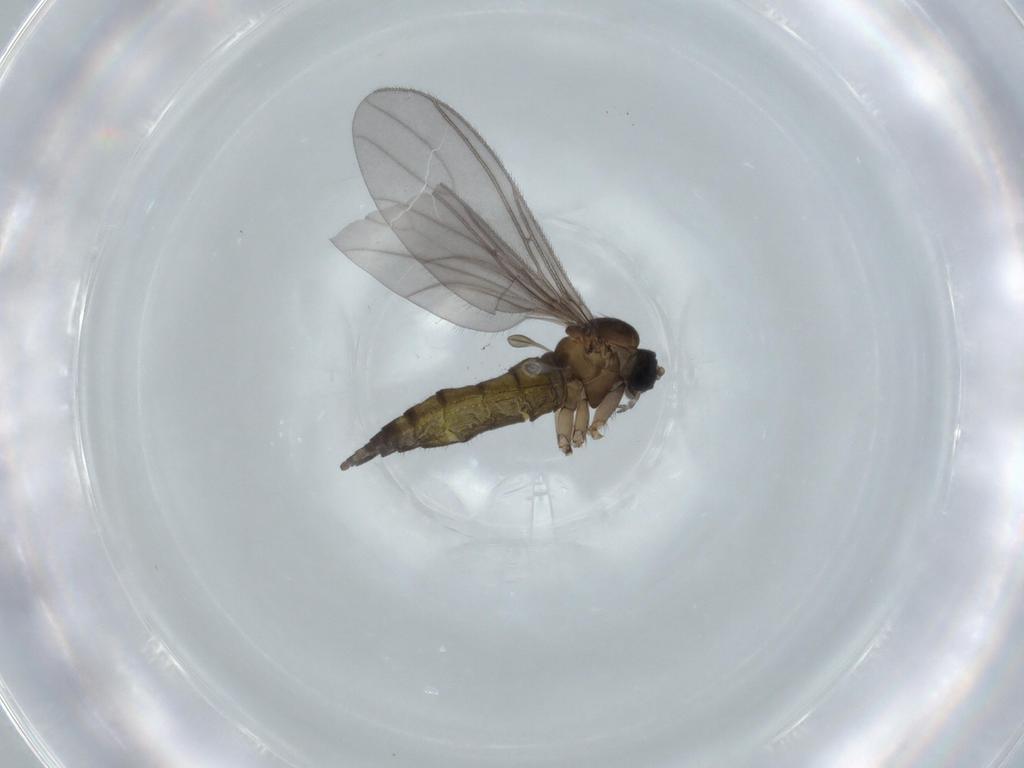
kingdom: Animalia
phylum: Arthropoda
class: Insecta
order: Diptera
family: Sciaridae
